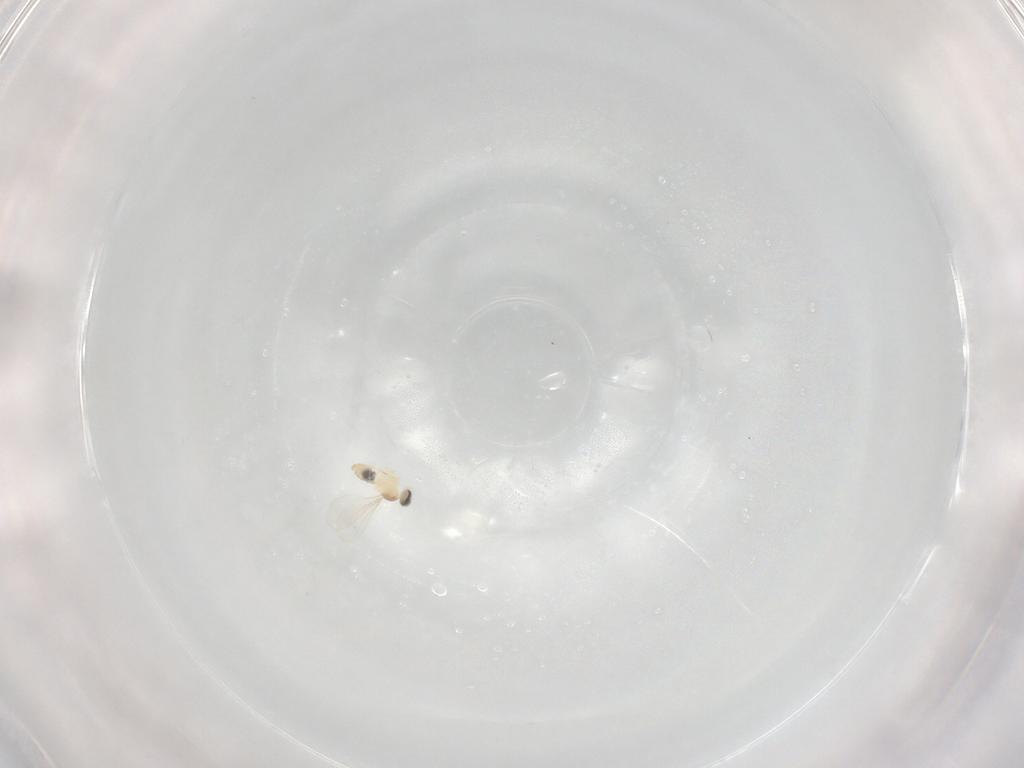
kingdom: Animalia
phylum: Arthropoda
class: Insecta
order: Diptera
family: Cecidomyiidae
